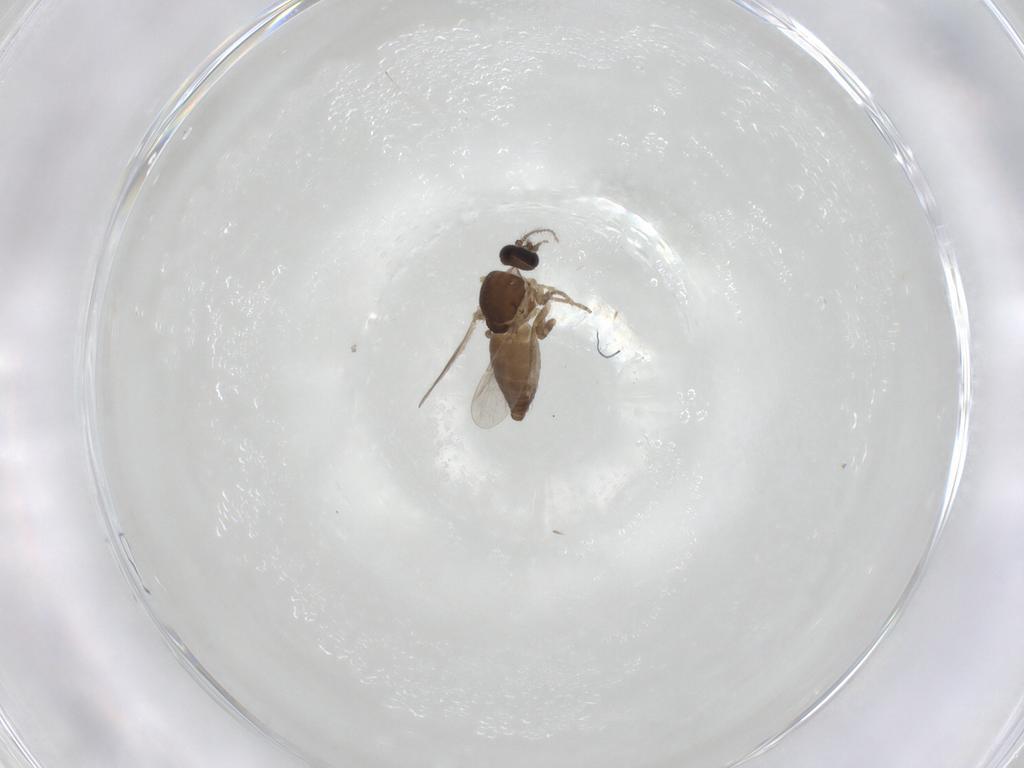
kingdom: Animalia
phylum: Arthropoda
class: Insecta
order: Diptera
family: Ceratopogonidae
